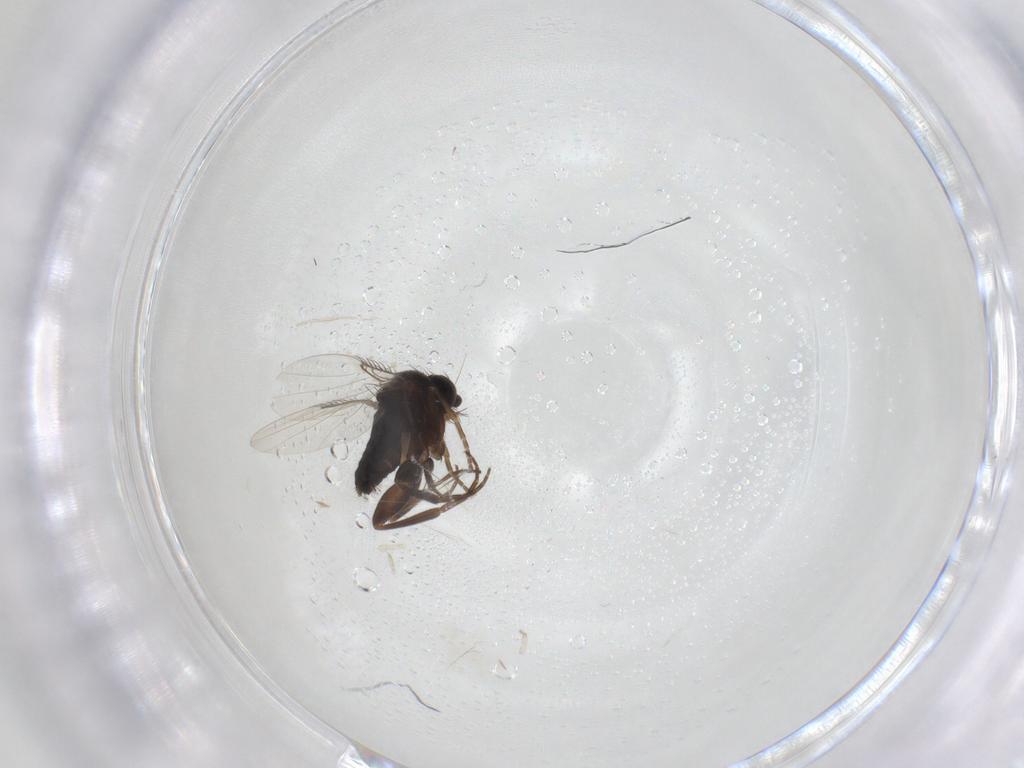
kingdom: Animalia
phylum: Arthropoda
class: Insecta
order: Diptera
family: Phoridae
